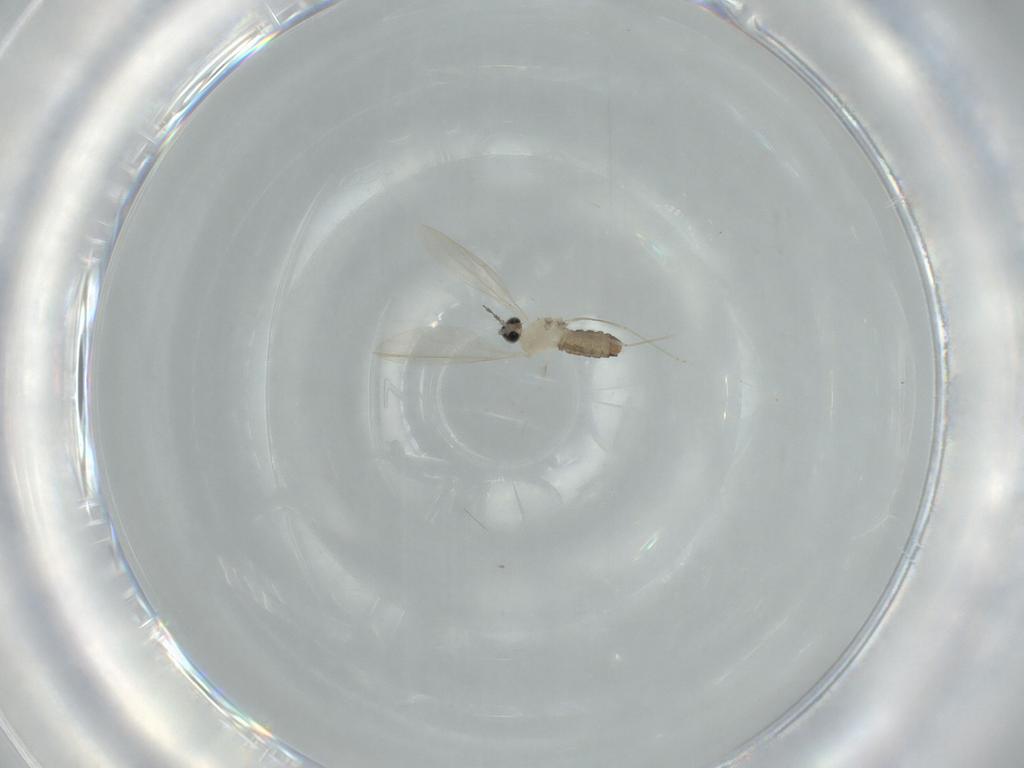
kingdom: Animalia
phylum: Arthropoda
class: Insecta
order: Diptera
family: Cecidomyiidae
